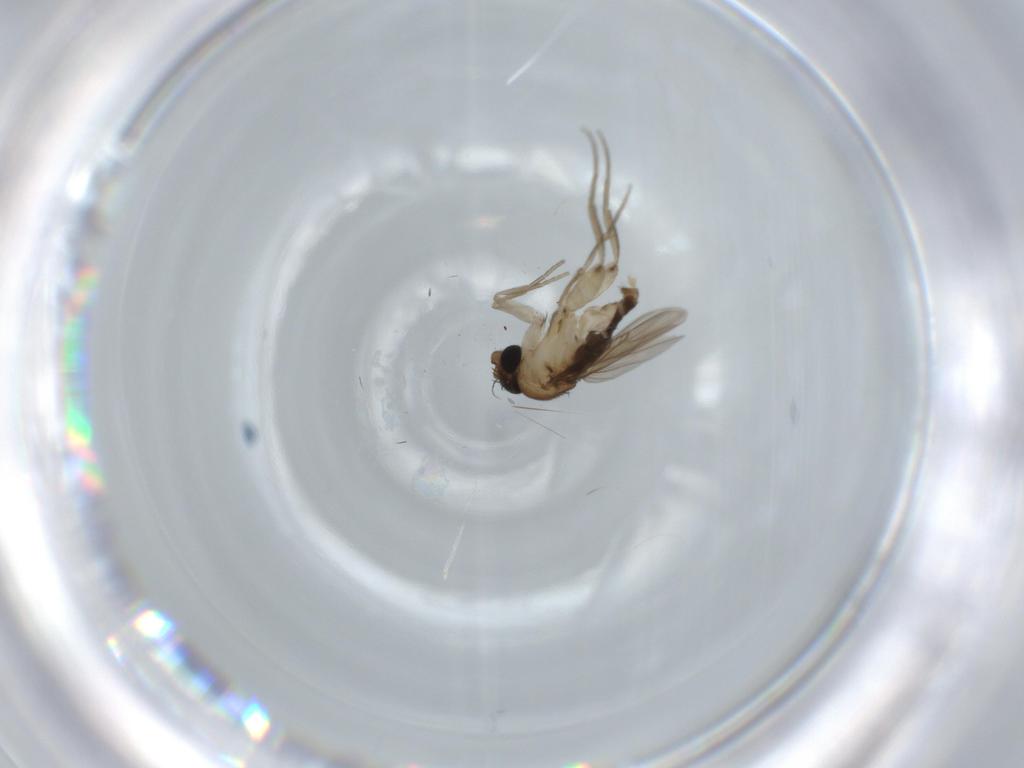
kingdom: Animalia
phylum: Arthropoda
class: Insecta
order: Diptera
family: Phoridae
